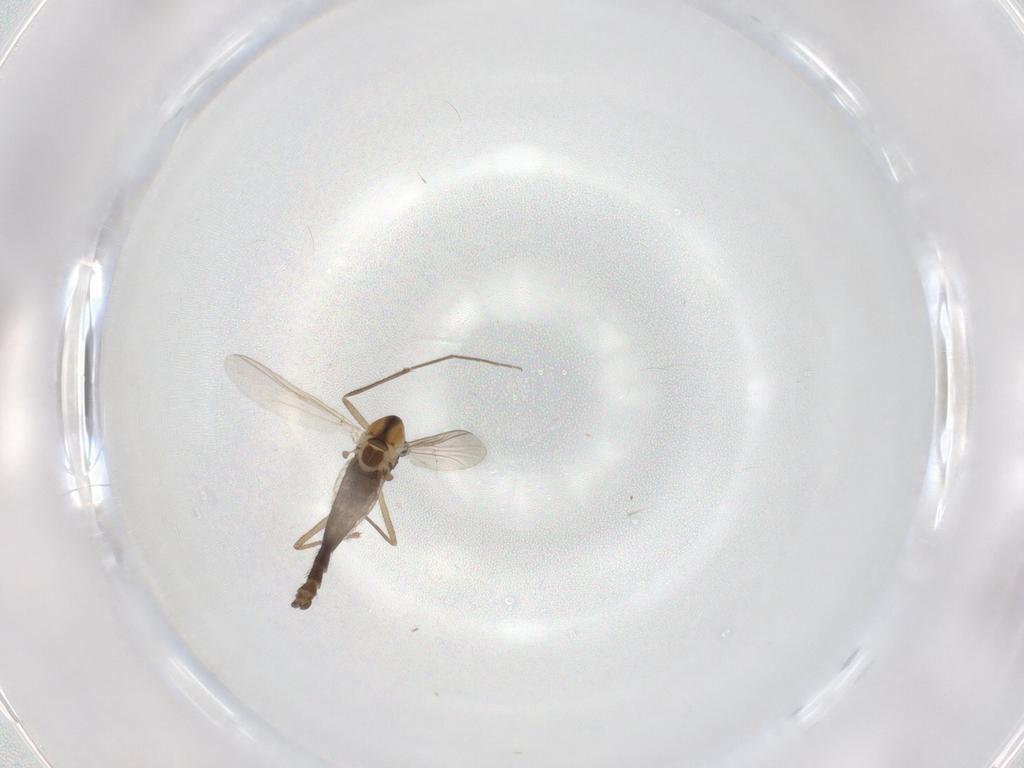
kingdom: Animalia
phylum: Arthropoda
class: Insecta
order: Diptera
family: Chironomidae
